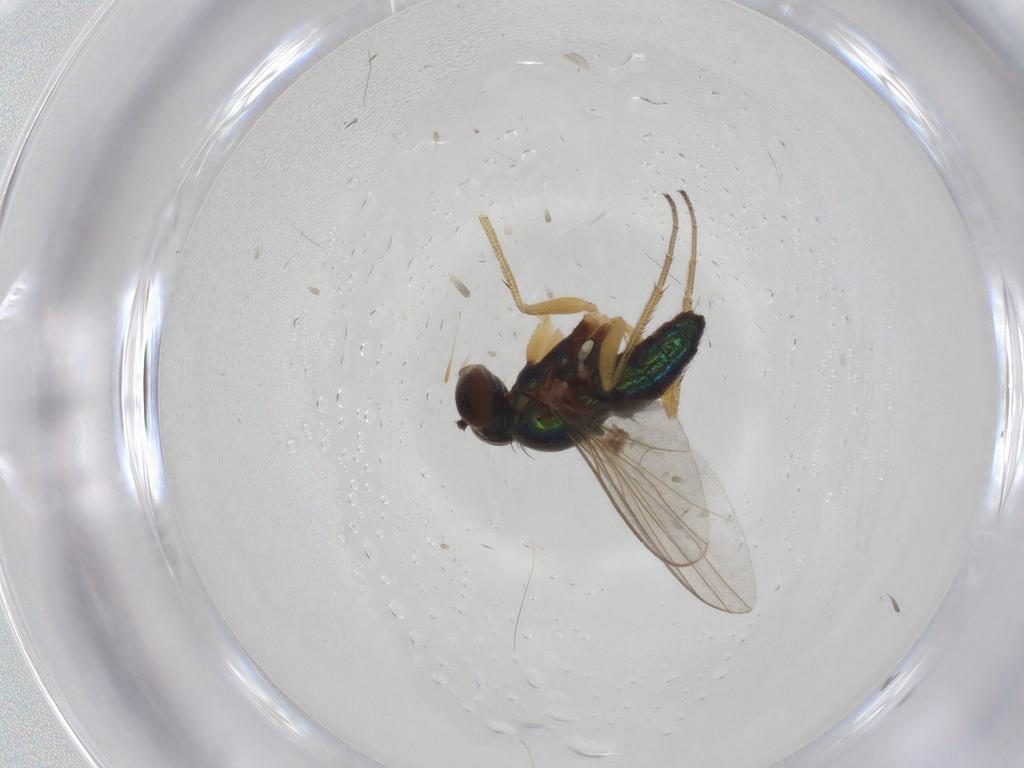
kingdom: Animalia
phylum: Arthropoda
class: Insecta
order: Diptera
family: Dolichopodidae
